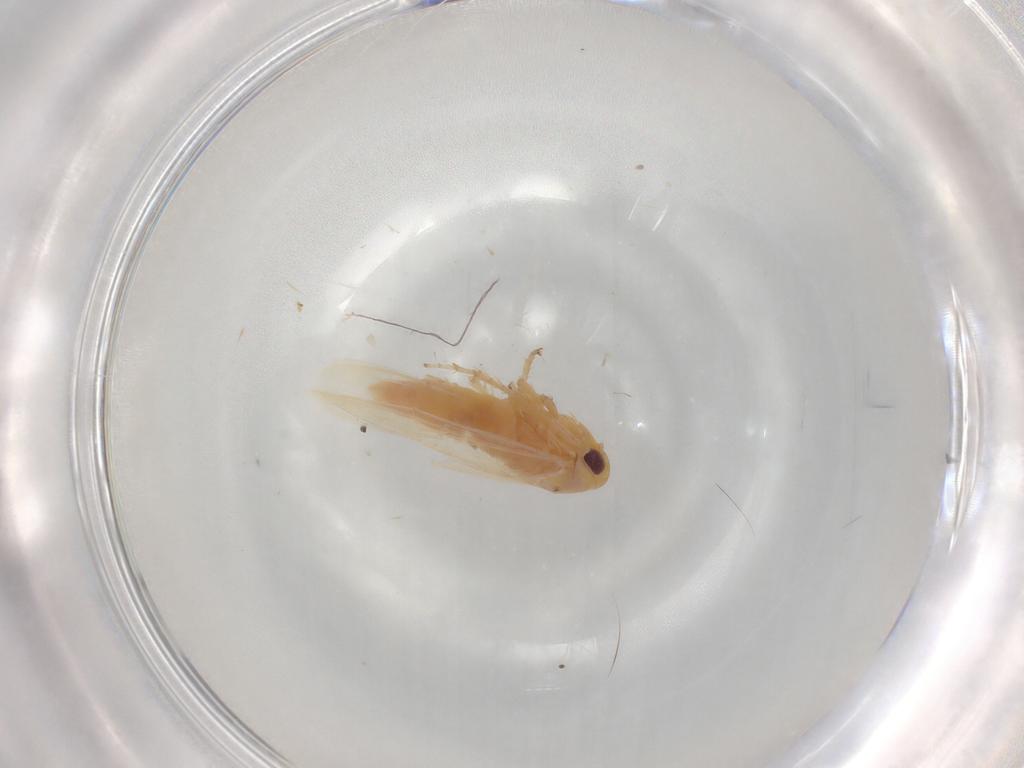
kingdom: Animalia
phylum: Arthropoda
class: Insecta
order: Hemiptera
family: Cicadellidae
